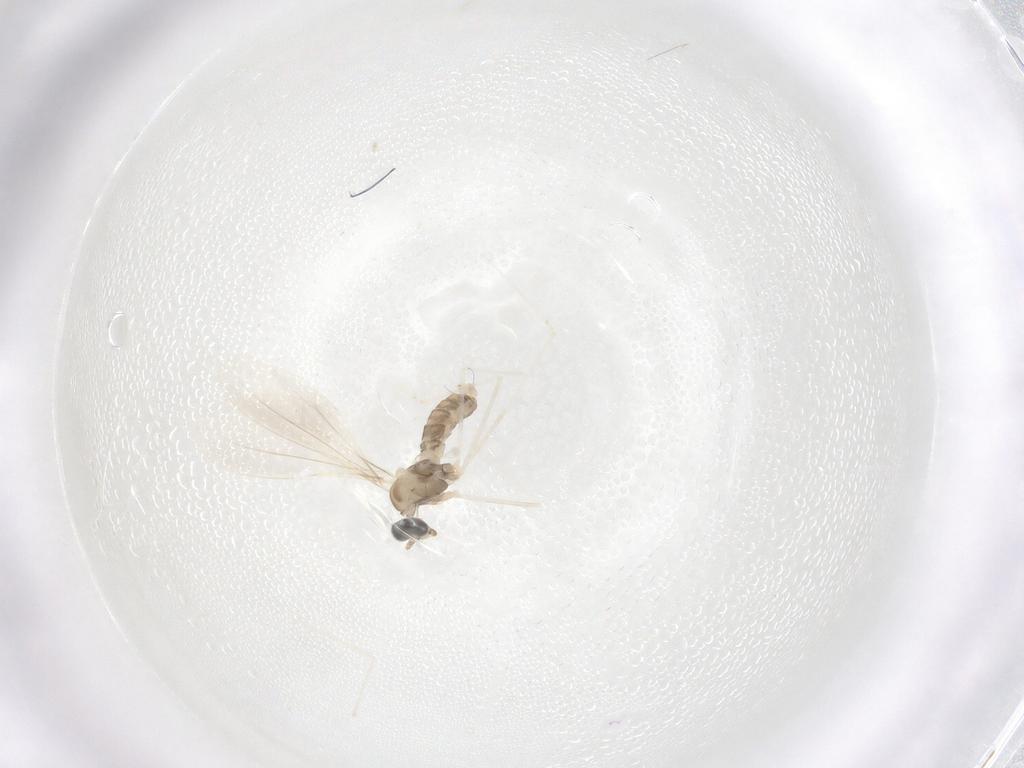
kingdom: Animalia
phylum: Arthropoda
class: Insecta
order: Diptera
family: Cecidomyiidae
